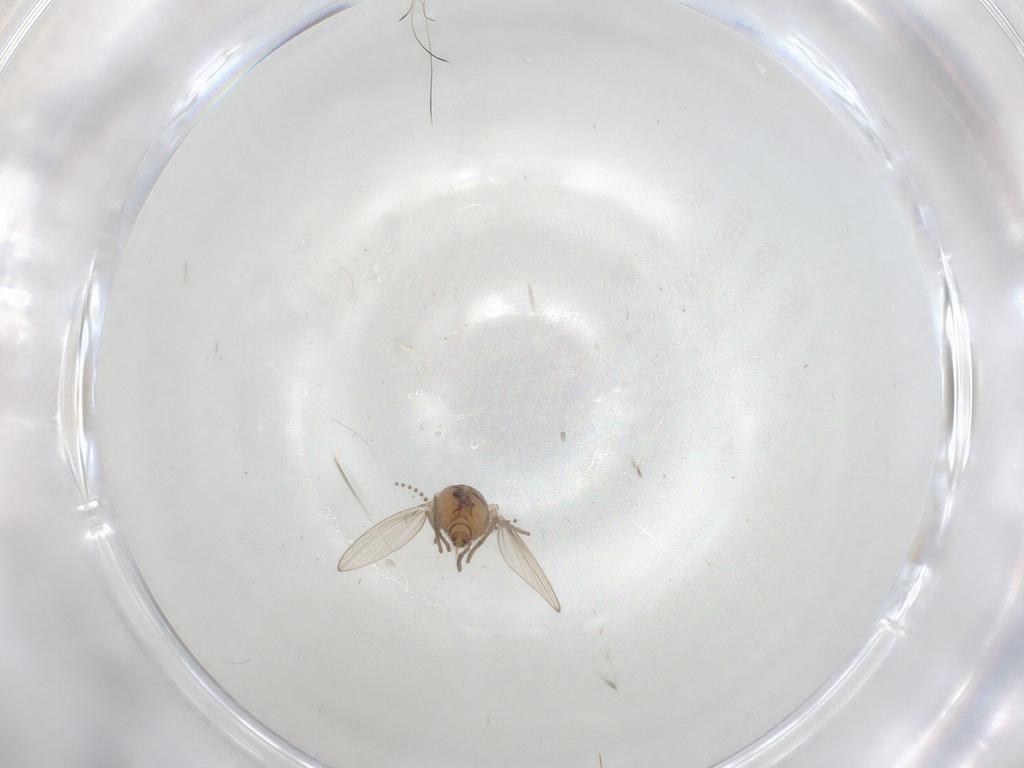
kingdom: Animalia
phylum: Arthropoda
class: Insecta
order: Diptera
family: Psychodidae
